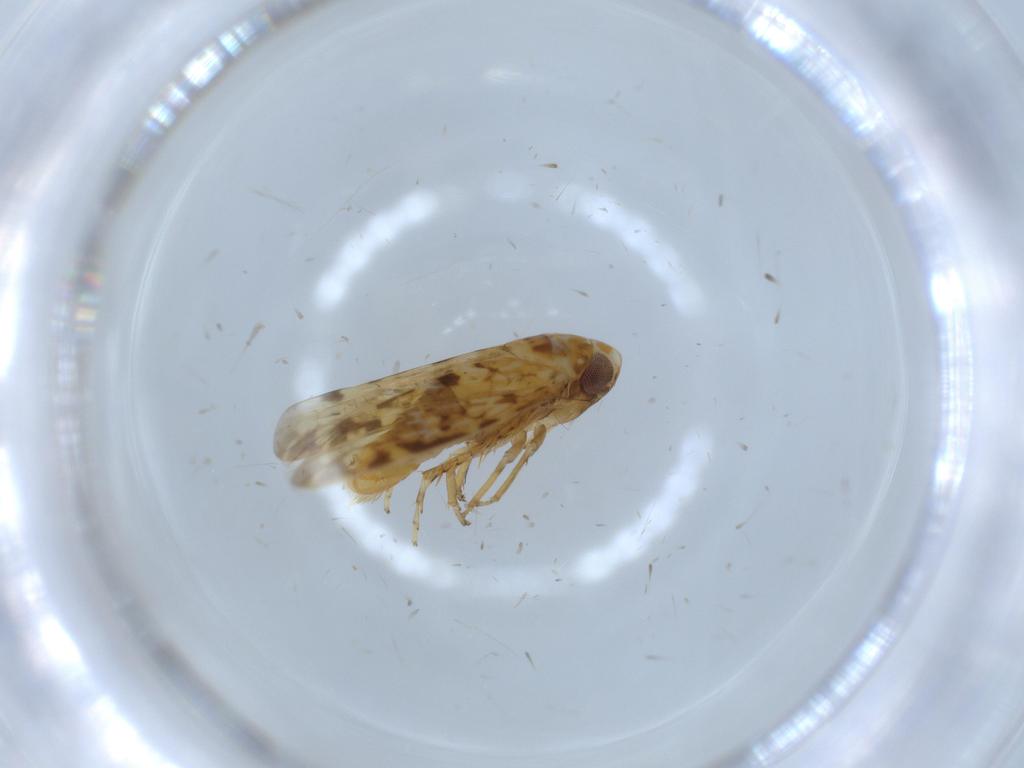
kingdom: Animalia
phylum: Arthropoda
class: Insecta
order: Hemiptera
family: Cicadellidae
